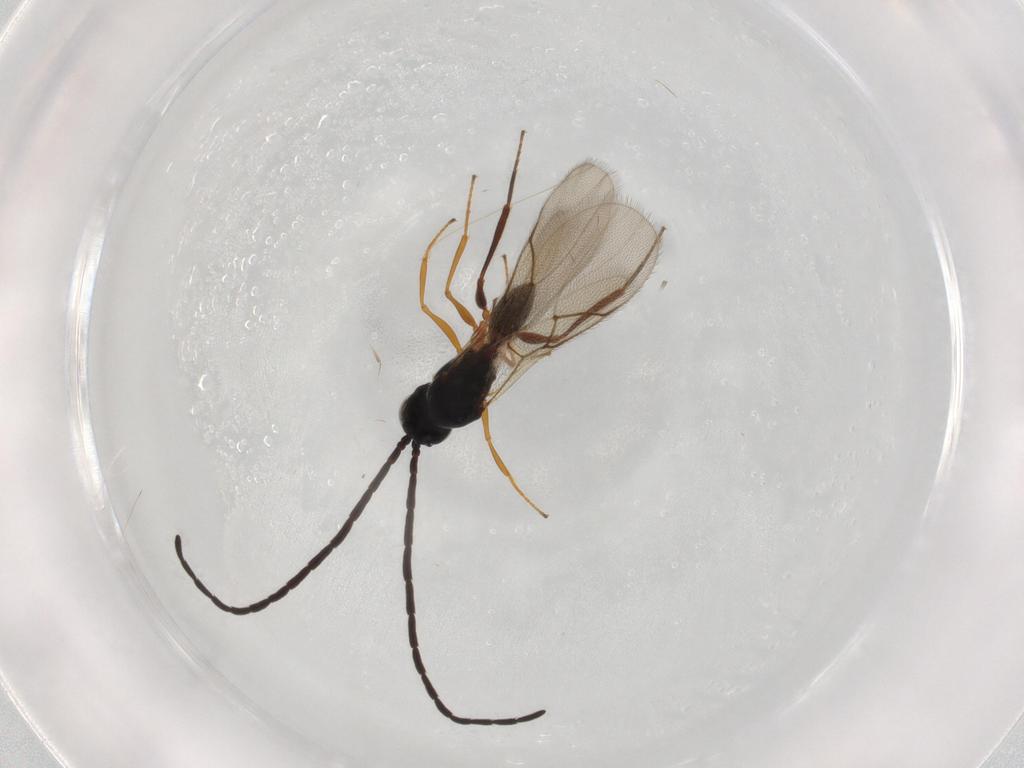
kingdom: Animalia
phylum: Arthropoda
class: Insecta
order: Hymenoptera
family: Figitidae
